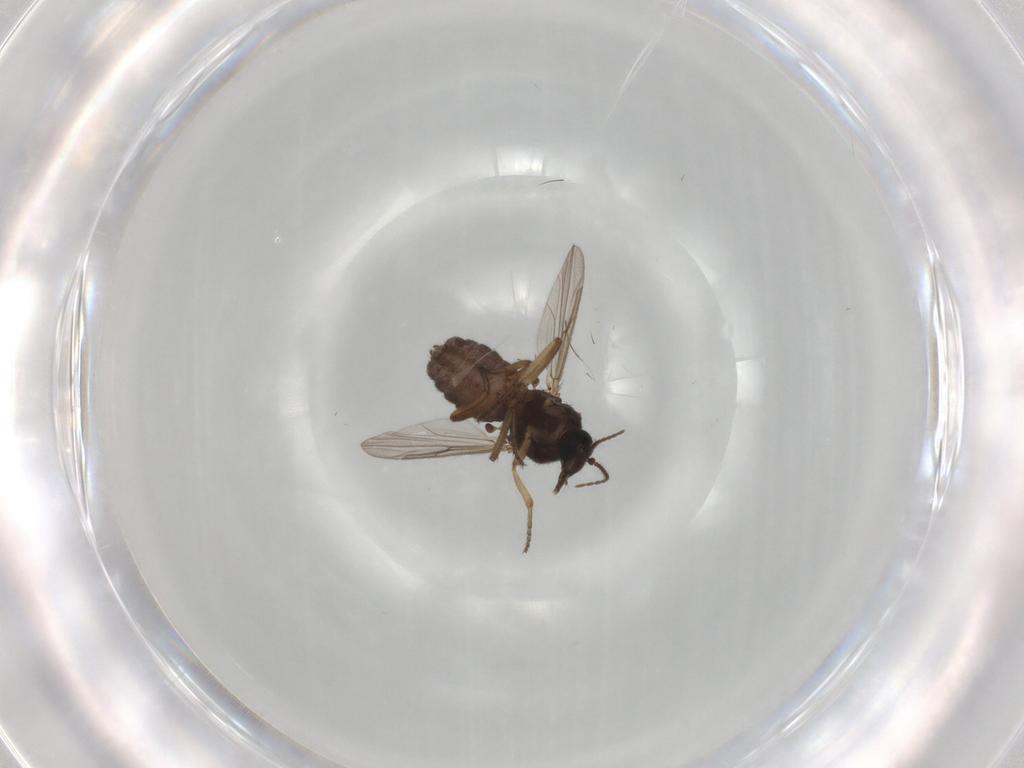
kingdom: Animalia
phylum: Arthropoda
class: Insecta
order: Diptera
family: Ceratopogonidae
